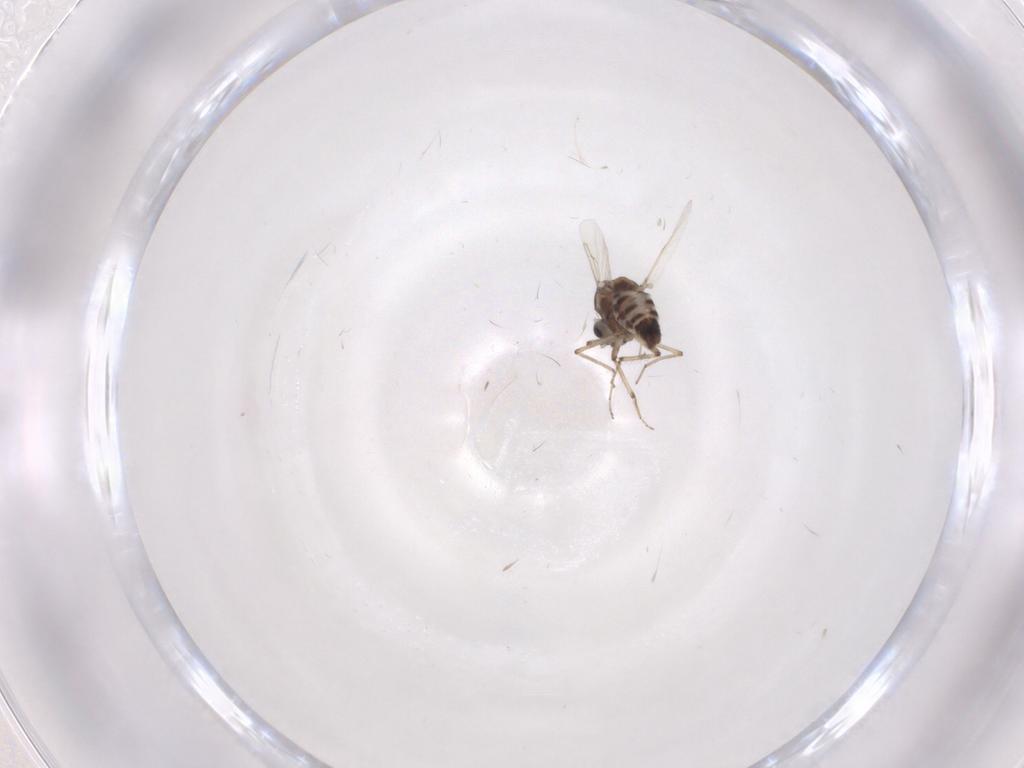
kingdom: Animalia
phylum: Arthropoda
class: Insecta
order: Diptera
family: Ceratopogonidae
